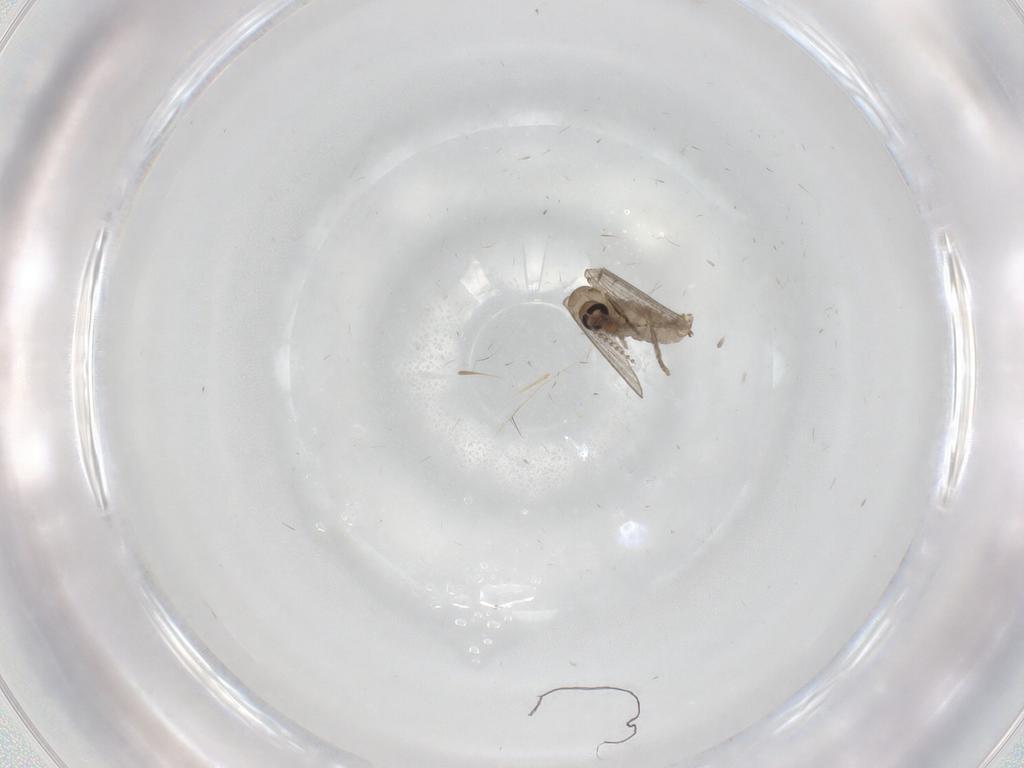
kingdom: Animalia
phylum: Arthropoda
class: Insecta
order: Diptera
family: Psychodidae
